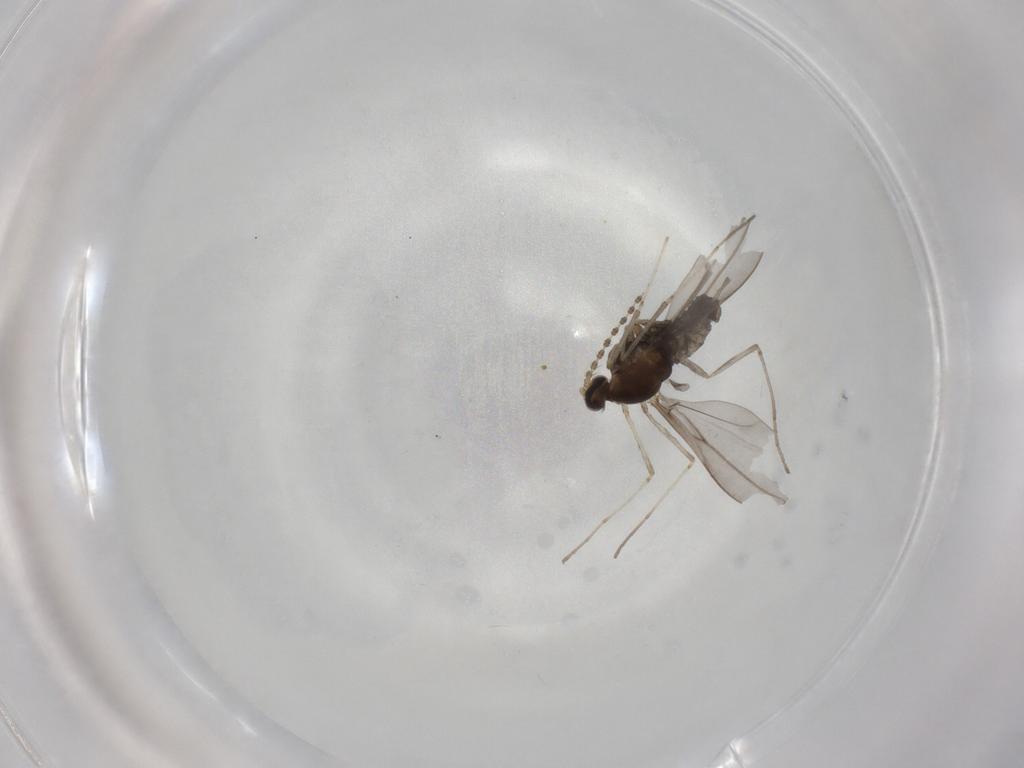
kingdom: Animalia
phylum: Arthropoda
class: Insecta
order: Diptera
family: Cecidomyiidae
